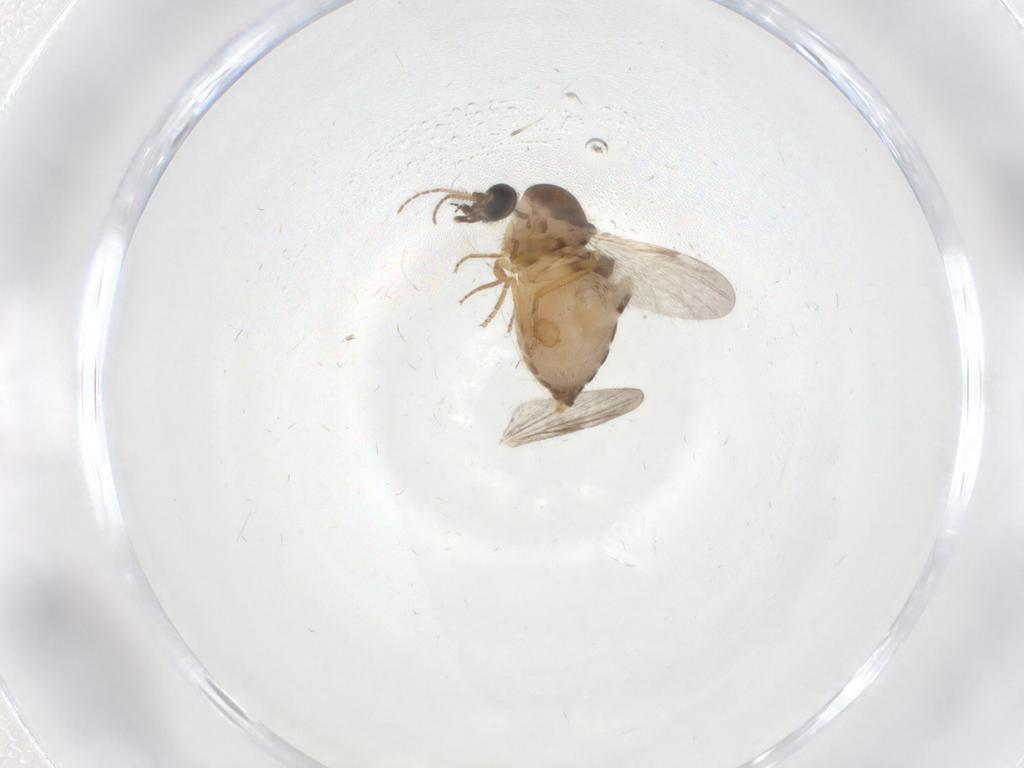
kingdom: Animalia
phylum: Arthropoda
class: Insecta
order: Diptera
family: Ceratopogonidae
